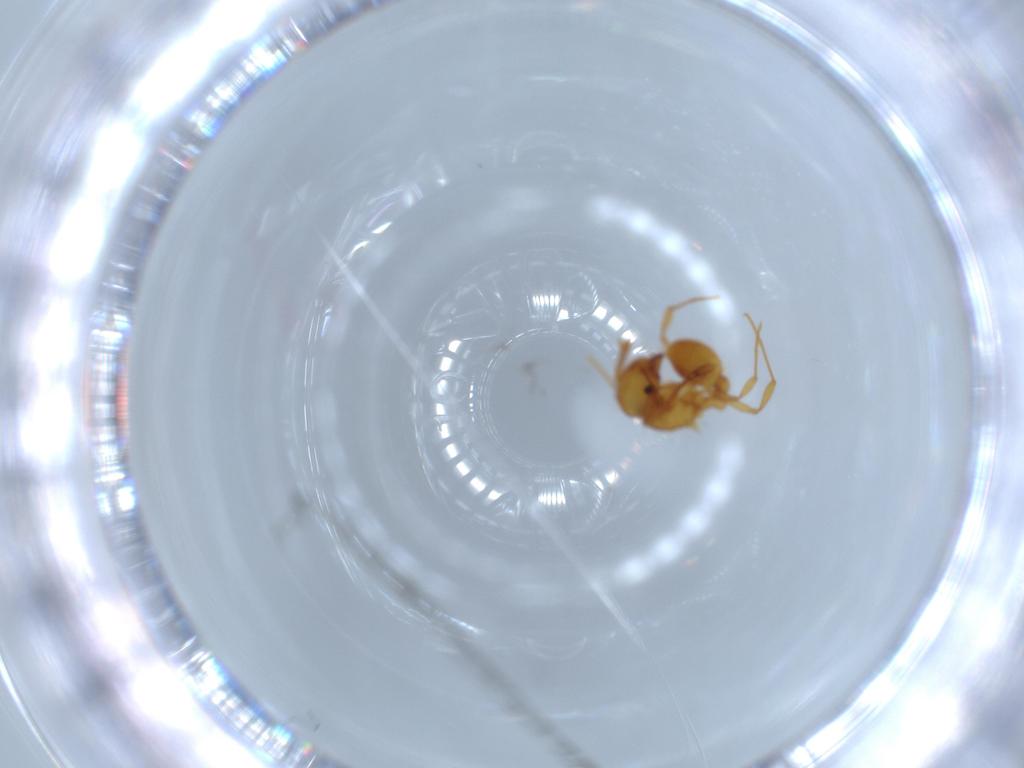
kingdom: Animalia
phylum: Arthropoda
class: Insecta
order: Hymenoptera
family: Formicidae
